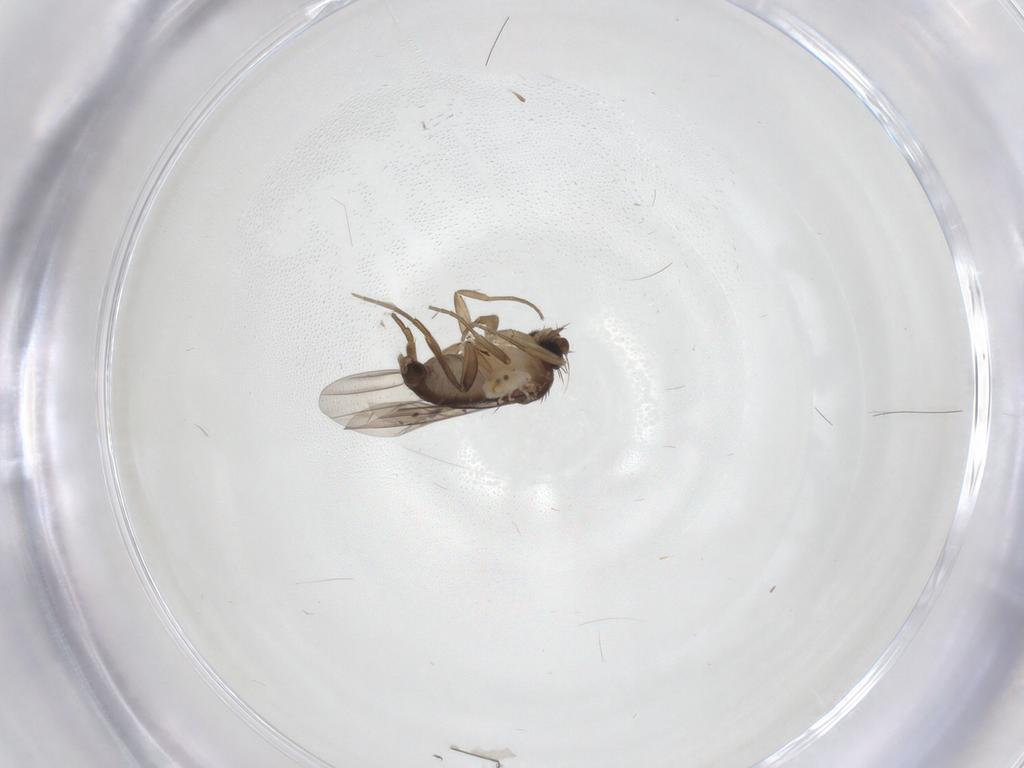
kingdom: Animalia
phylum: Arthropoda
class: Insecta
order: Diptera
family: Phoridae
